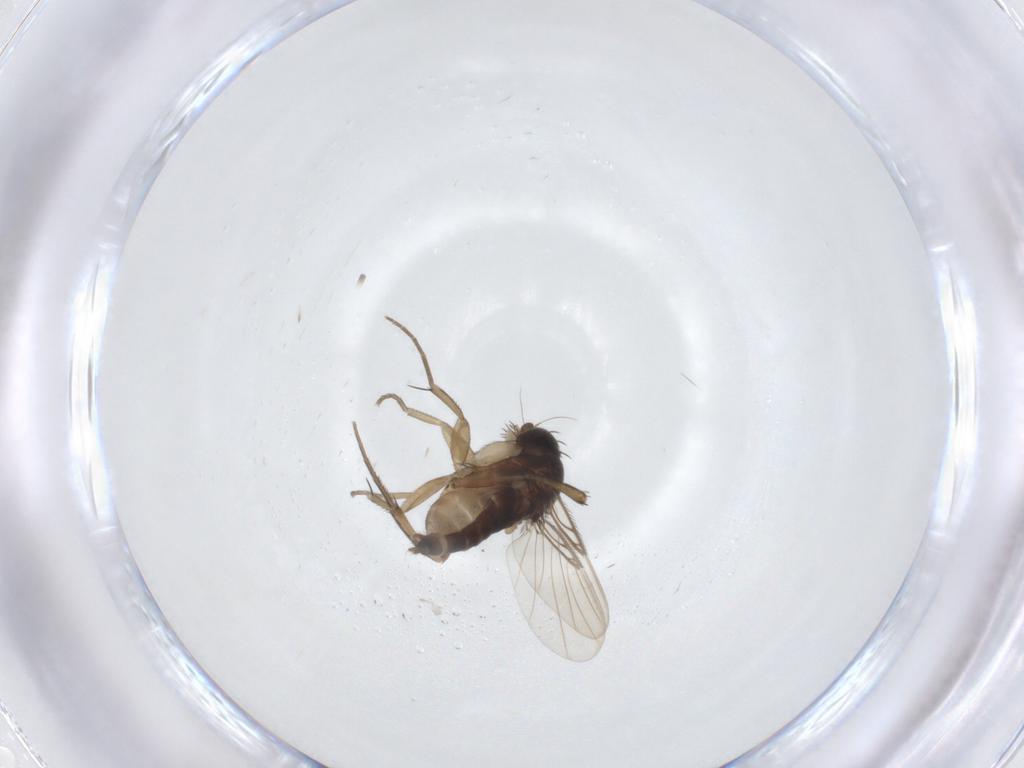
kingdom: Animalia
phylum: Arthropoda
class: Insecta
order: Diptera
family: Phoridae
